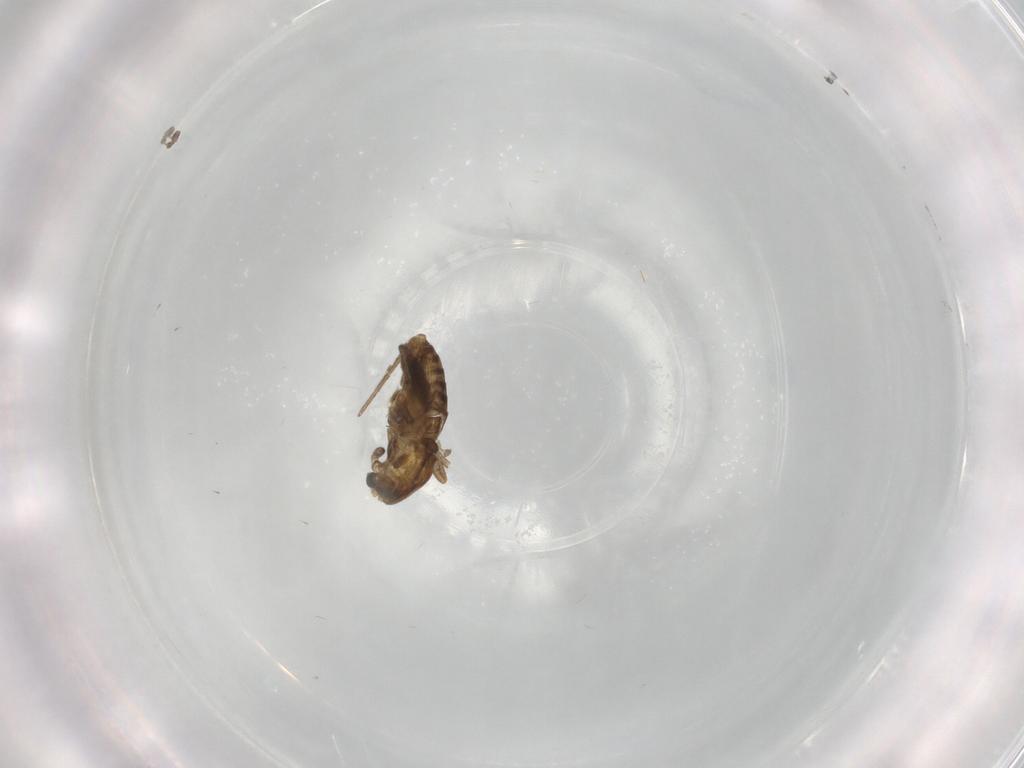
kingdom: Animalia
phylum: Arthropoda
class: Insecta
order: Diptera
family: Chironomidae
